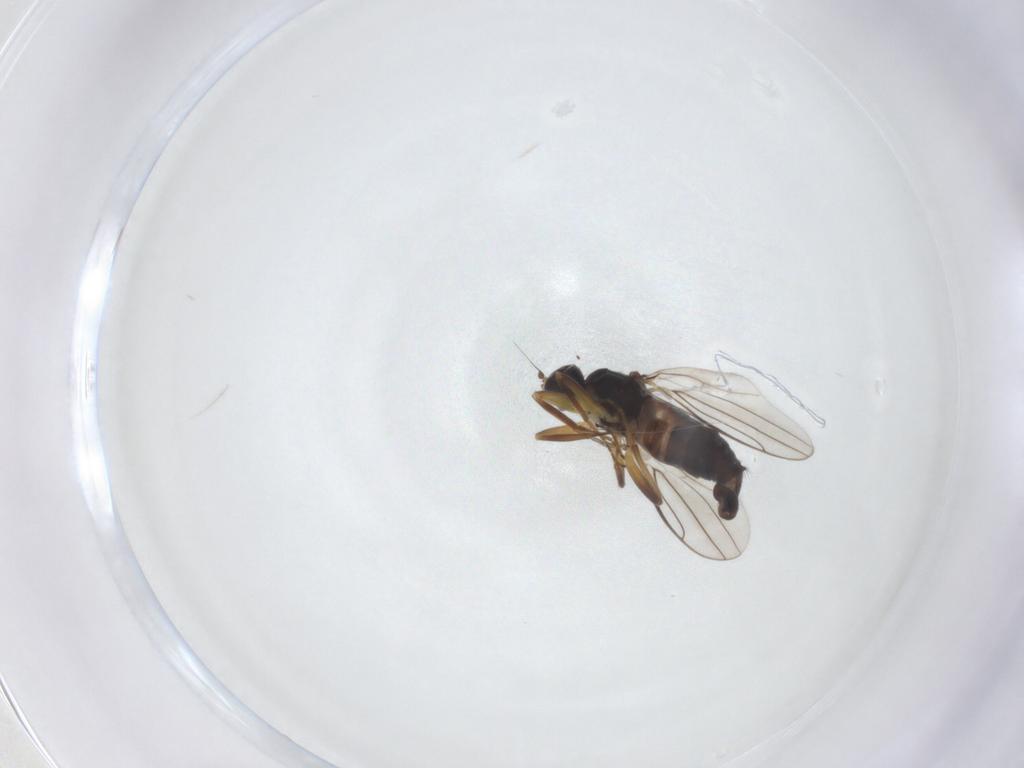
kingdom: Animalia
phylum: Arthropoda
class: Insecta
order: Diptera
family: Hybotidae
